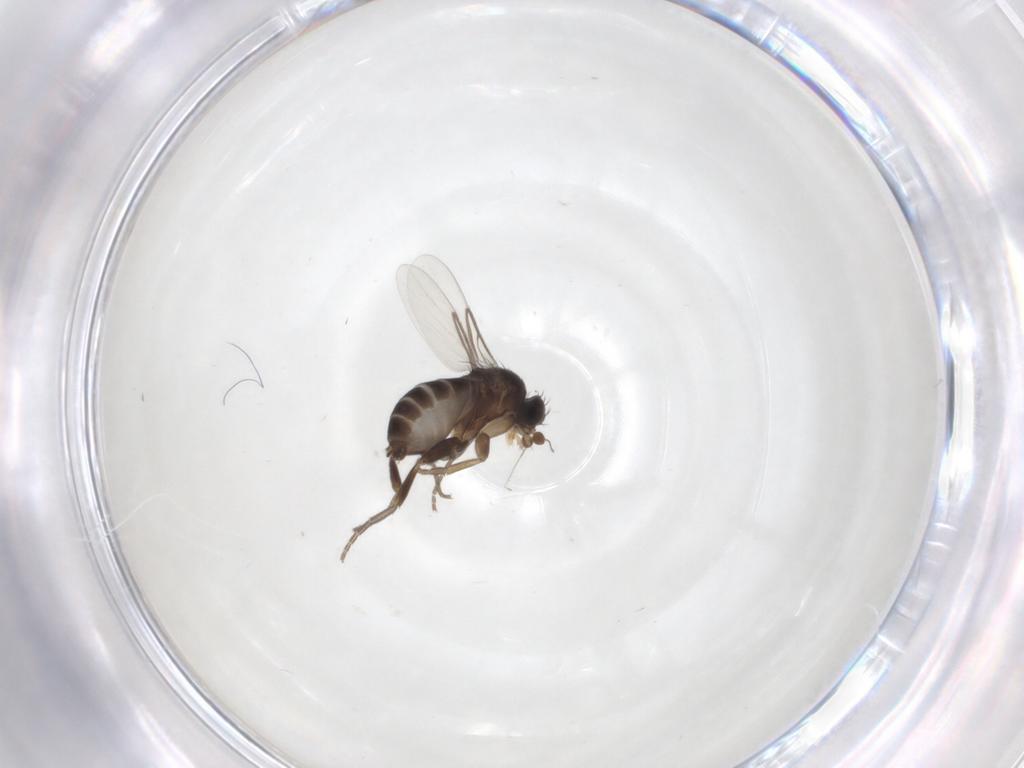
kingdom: Animalia
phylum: Arthropoda
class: Insecta
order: Diptera
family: Phoridae
